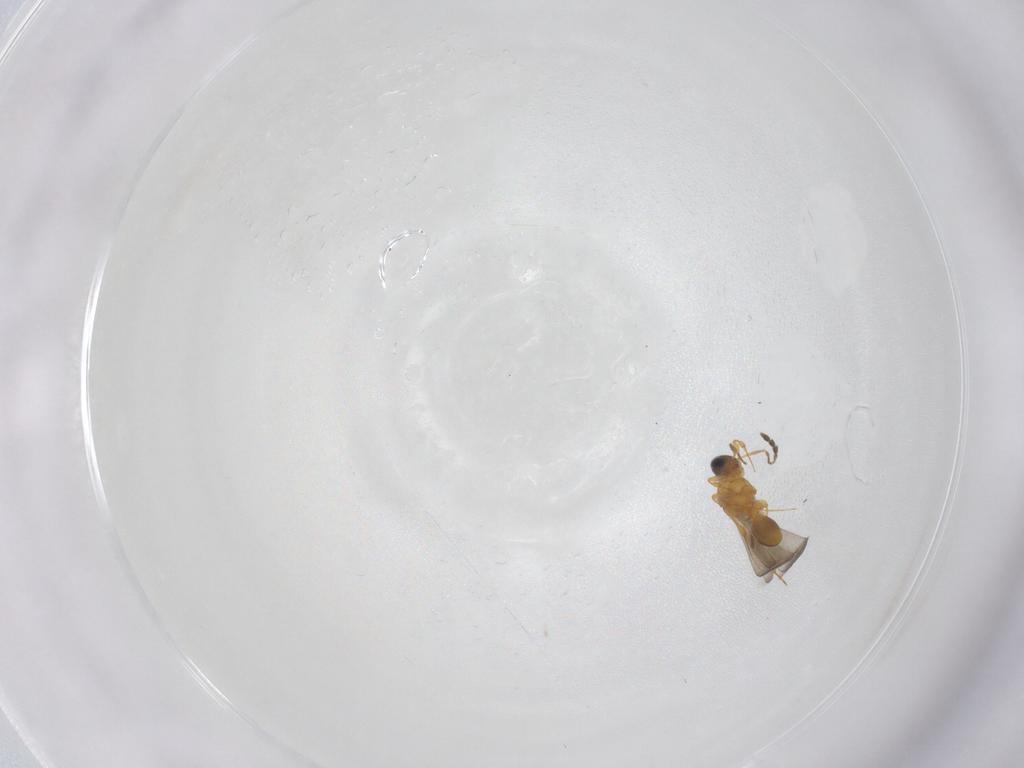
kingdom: Animalia
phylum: Arthropoda
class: Insecta
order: Hymenoptera
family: Platygastridae
